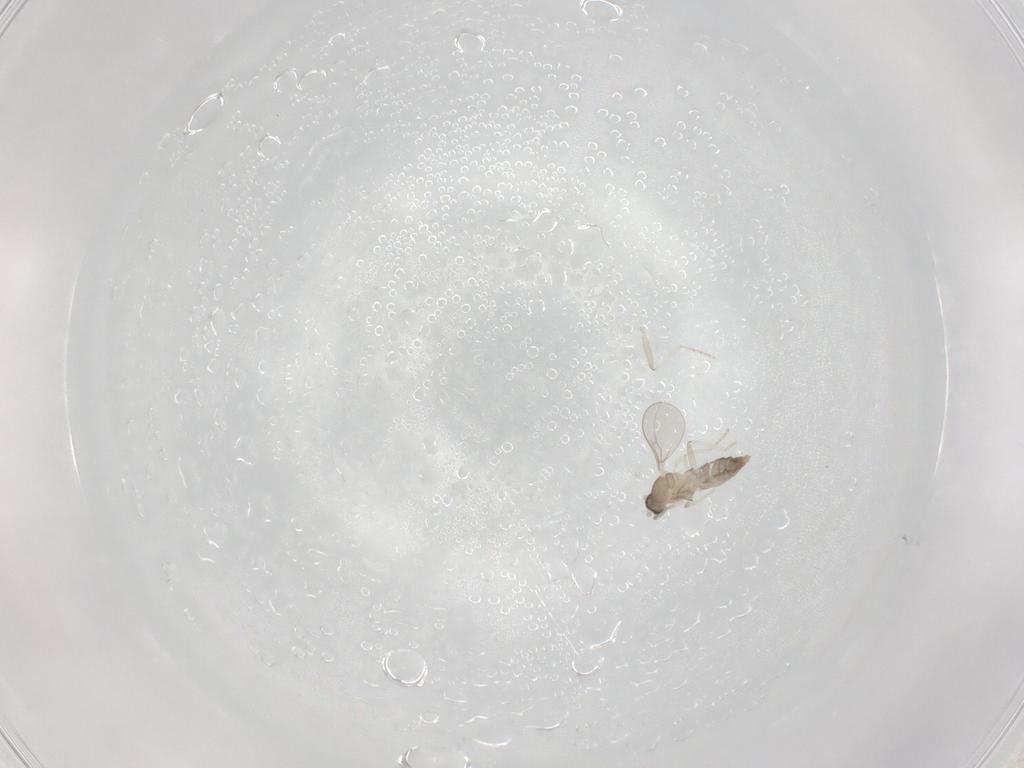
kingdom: Animalia
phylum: Arthropoda
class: Insecta
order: Diptera
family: Cecidomyiidae
